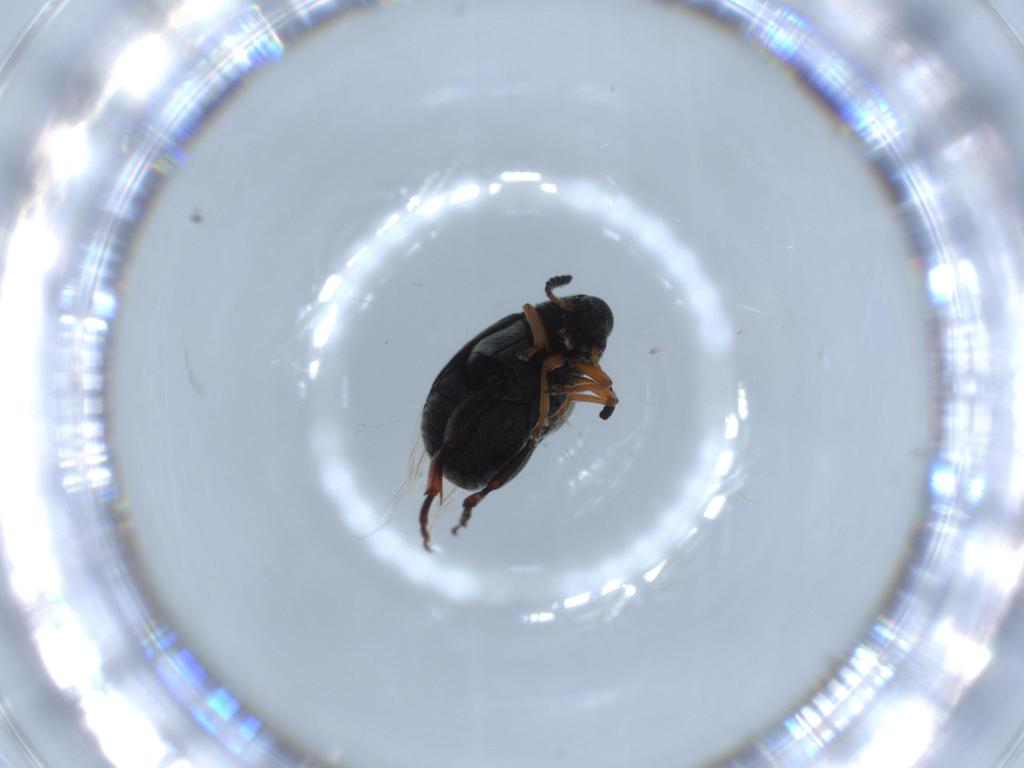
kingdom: Animalia
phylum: Arthropoda
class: Insecta
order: Coleoptera
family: Chrysomelidae
